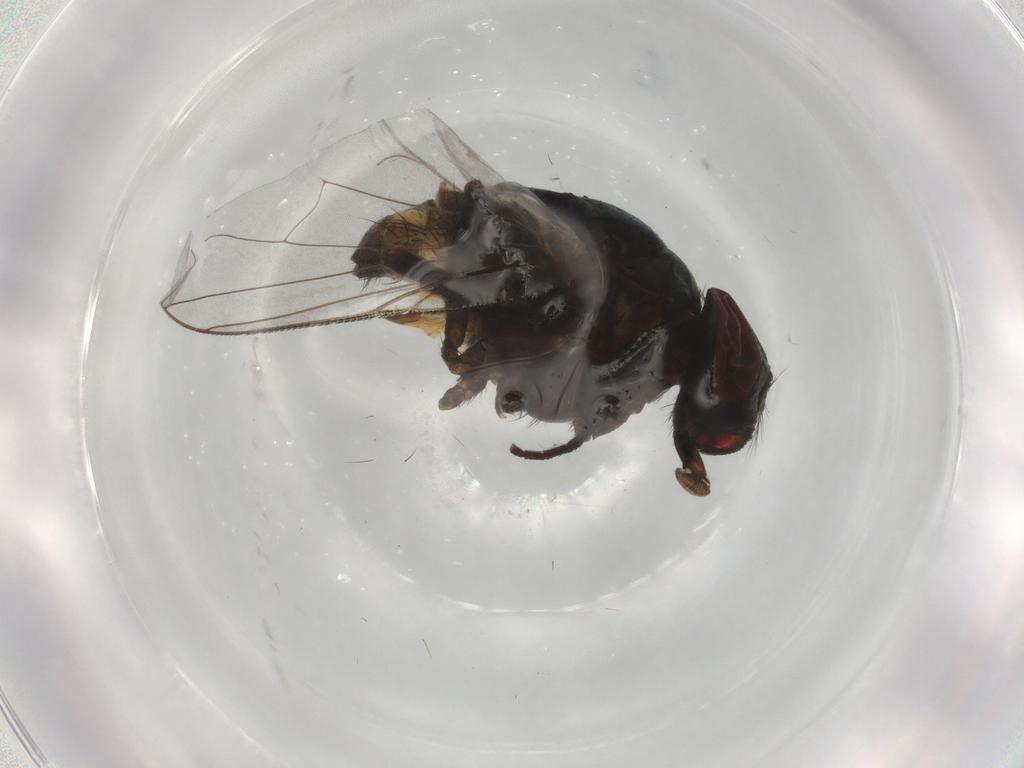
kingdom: Animalia
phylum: Arthropoda
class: Insecta
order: Diptera
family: Muscidae
